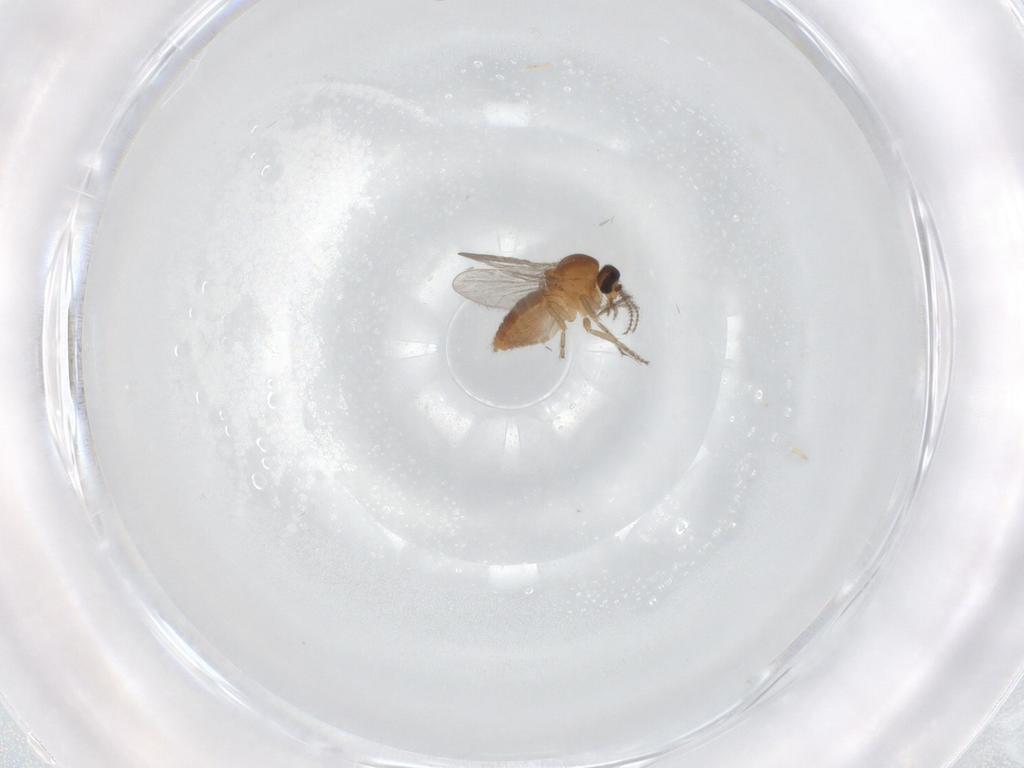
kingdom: Animalia
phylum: Arthropoda
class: Insecta
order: Diptera
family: Ceratopogonidae
